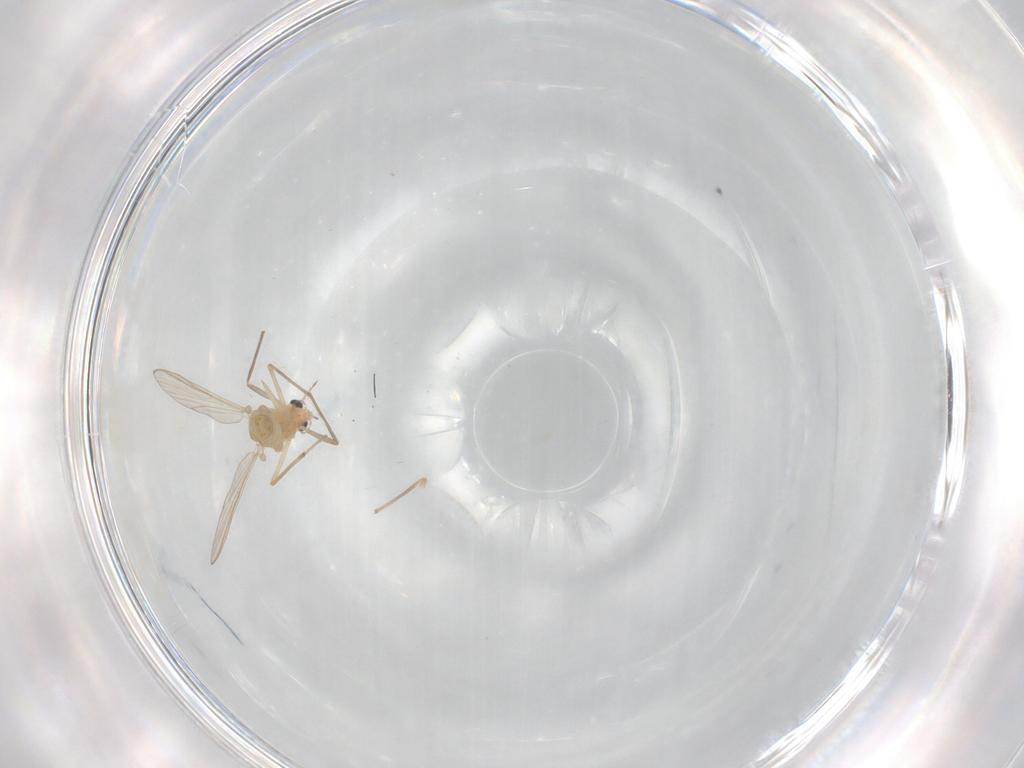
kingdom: Animalia
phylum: Arthropoda
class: Insecta
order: Diptera
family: Chironomidae
